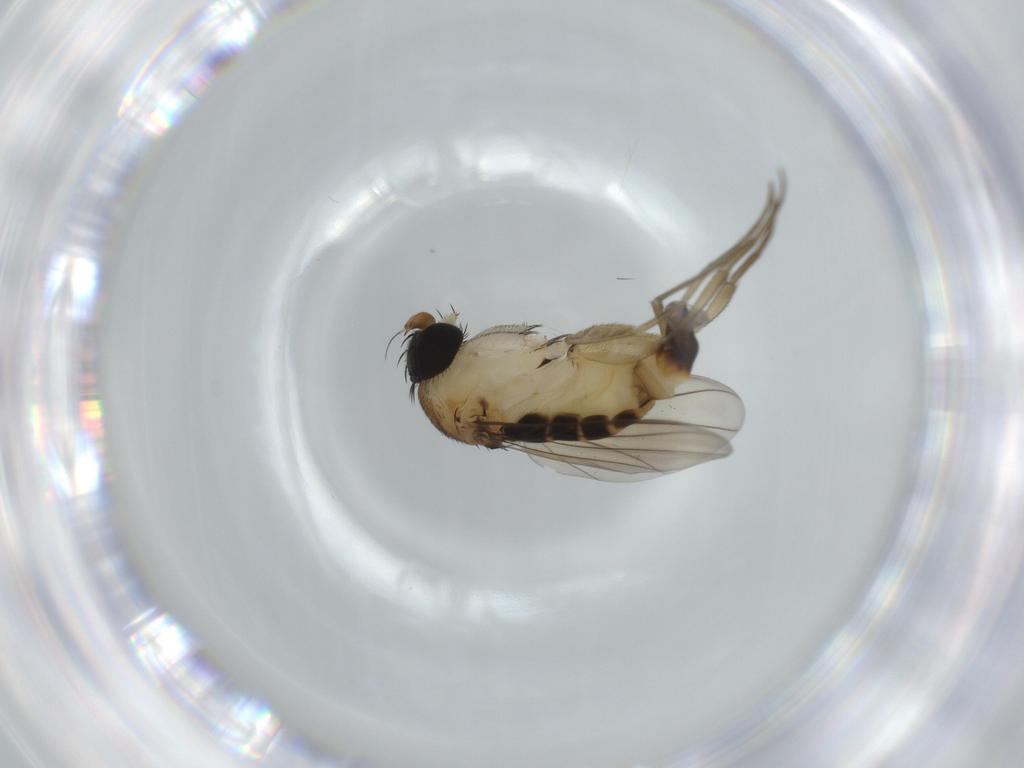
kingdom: Animalia
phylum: Arthropoda
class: Insecta
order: Diptera
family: Phoridae
